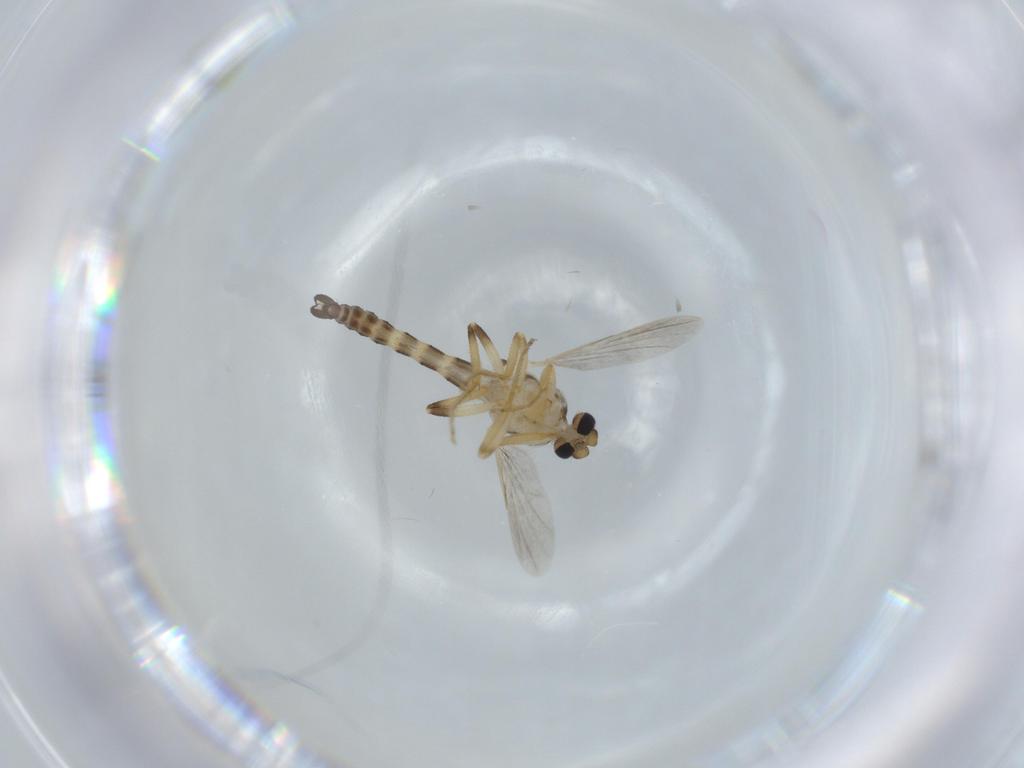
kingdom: Animalia
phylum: Arthropoda
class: Insecta
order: Diptera
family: Ceratopogonidae
